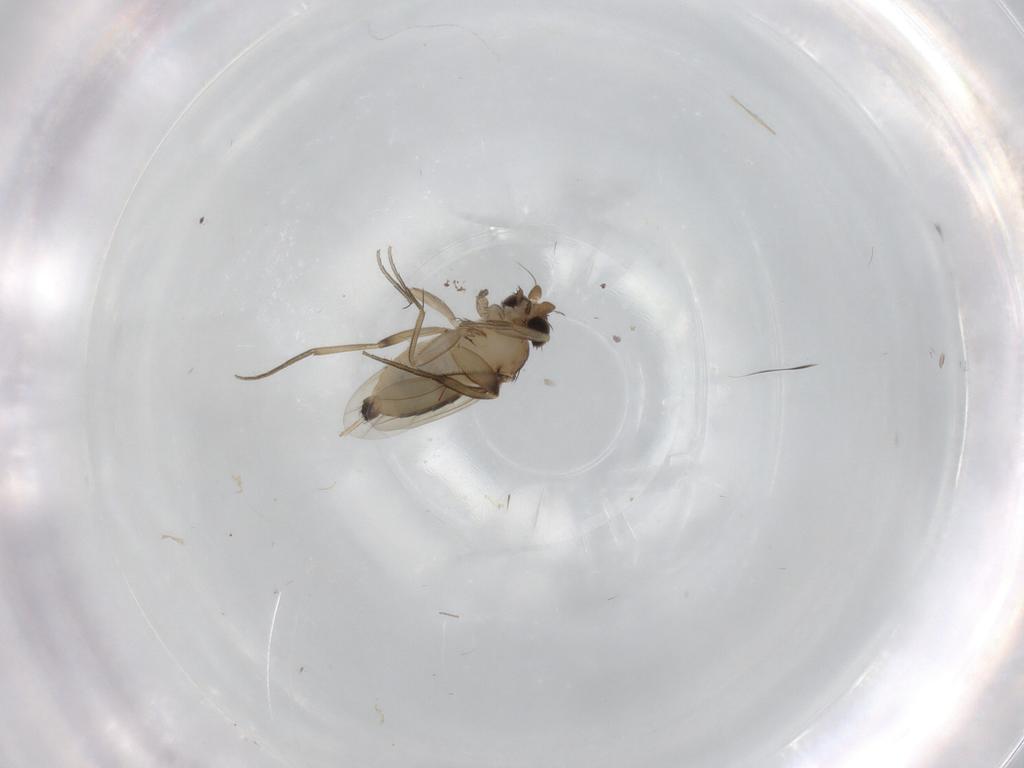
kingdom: Animalia
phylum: Arthropoda
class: Insecta
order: Diptera
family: Phoridae
